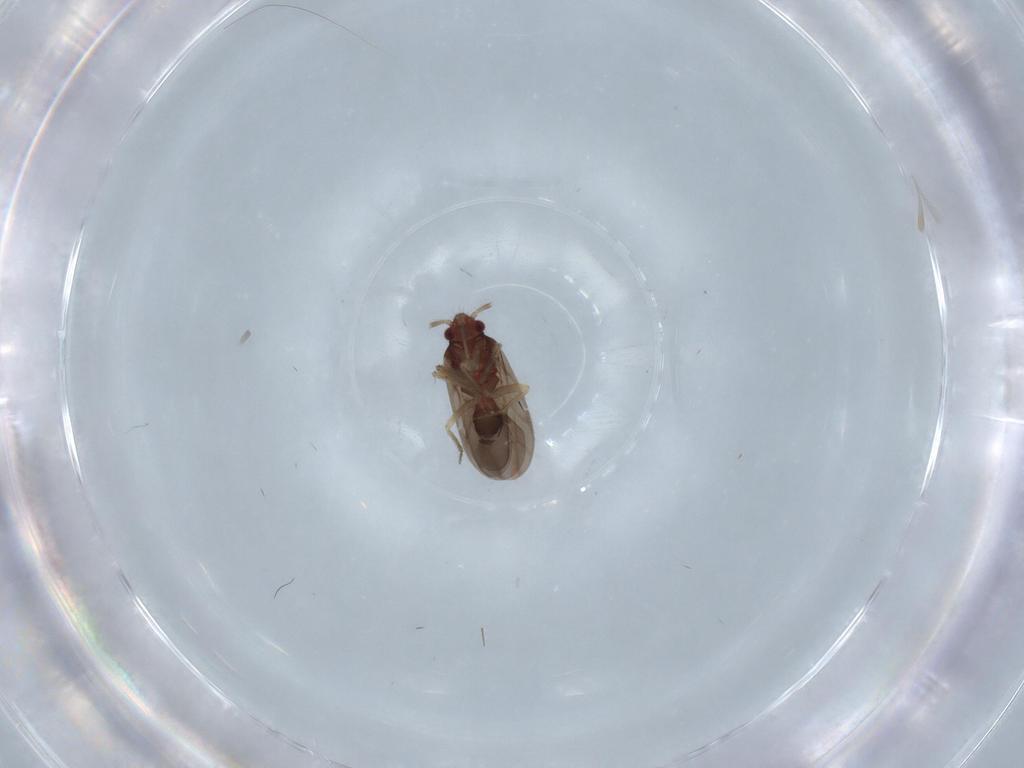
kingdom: Animalia
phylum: Arthropoda
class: Insecta
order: Hemiptera
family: Ceratocombidae
